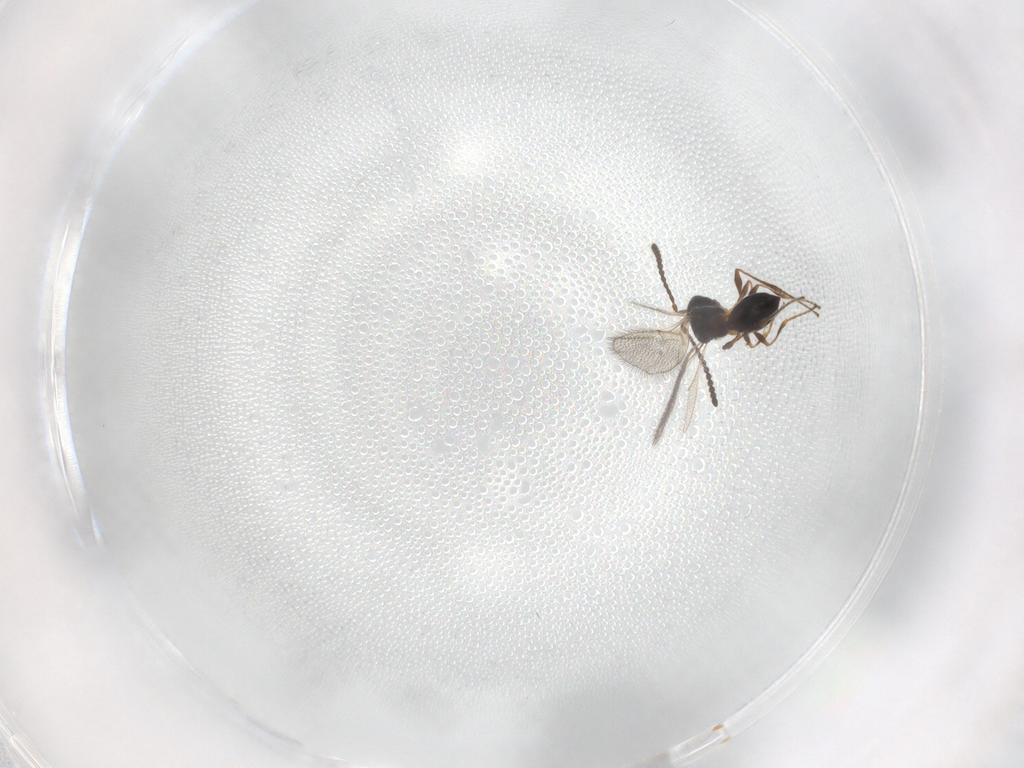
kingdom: Animalia
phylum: Arthropoda
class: Insecta
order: Hymenoptera
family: Diapriidae
